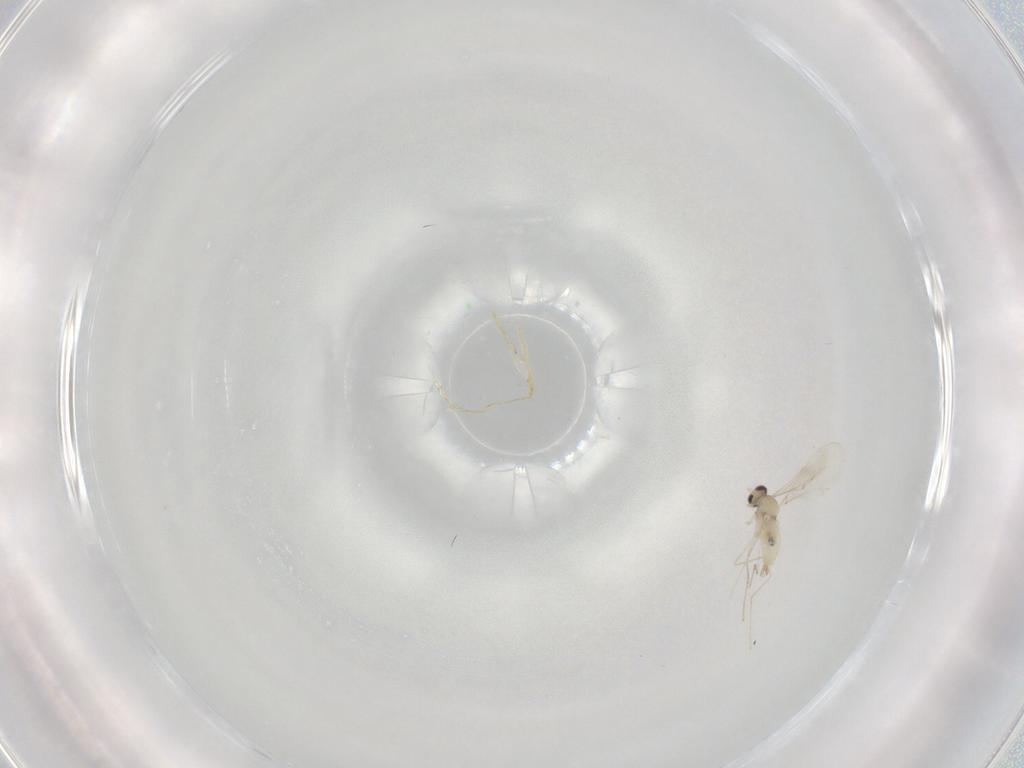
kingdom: Animalia
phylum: Arthropoda
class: Insecta
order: Diptera
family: Cecidomyiidae
